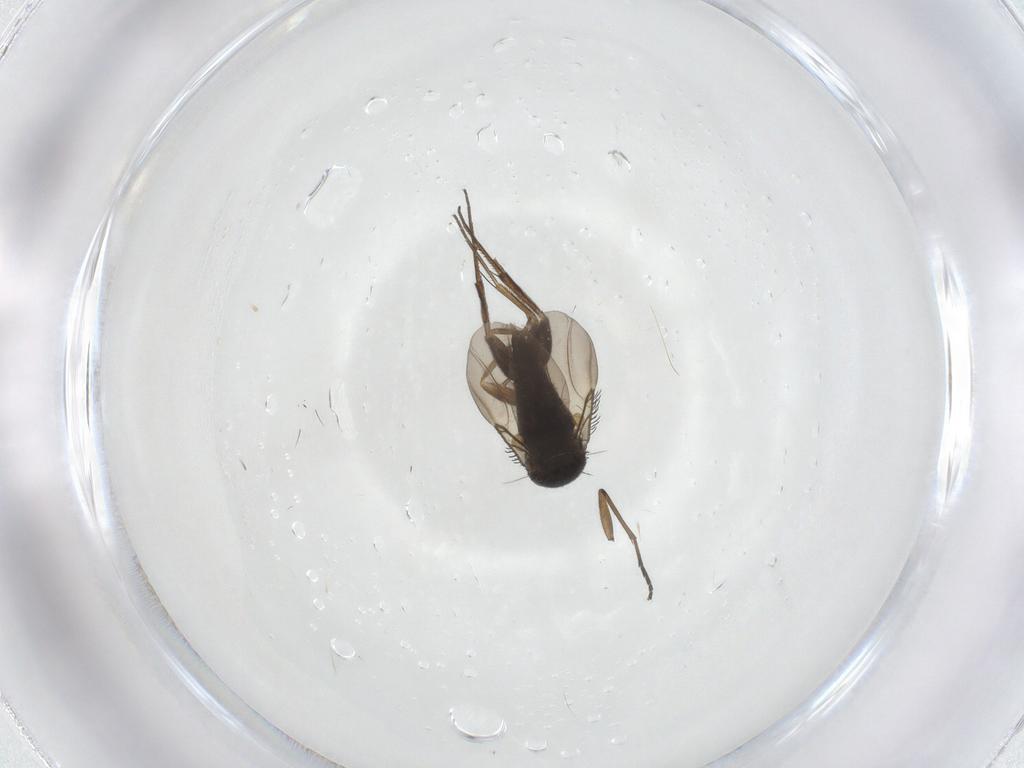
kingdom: Animalia
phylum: Arthropoda
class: Insecta
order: Diptera
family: Phoridae
